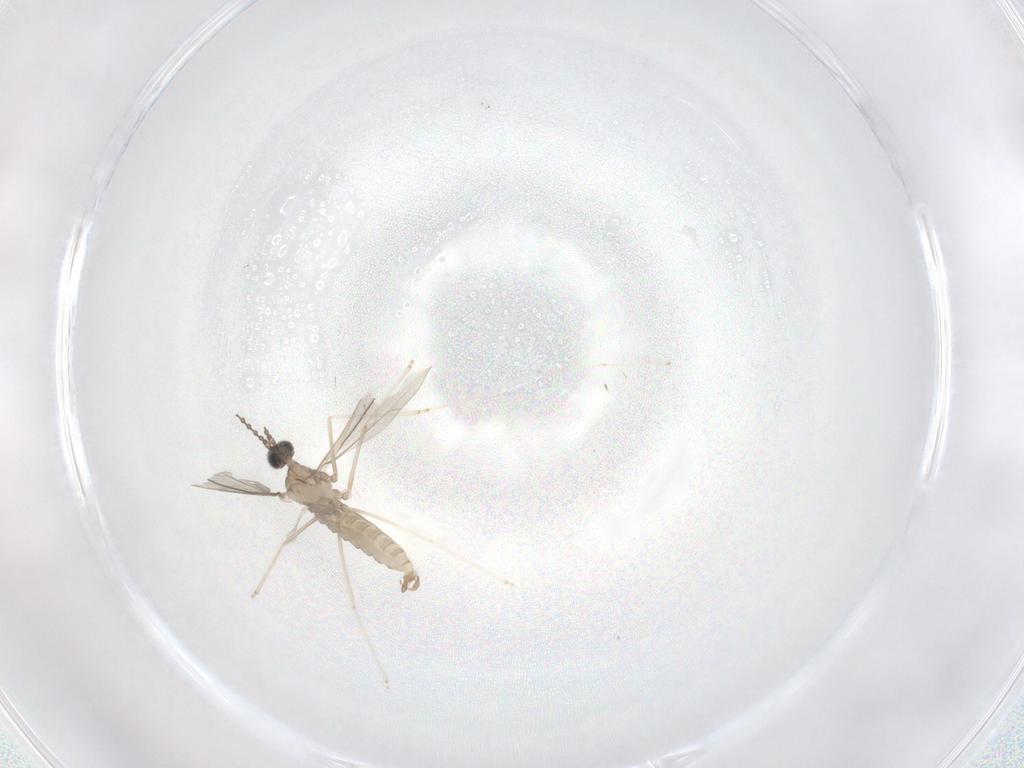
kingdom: Animalia
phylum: Arthropoda
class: Insecta
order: Diptera
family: Cecidomyiidae
